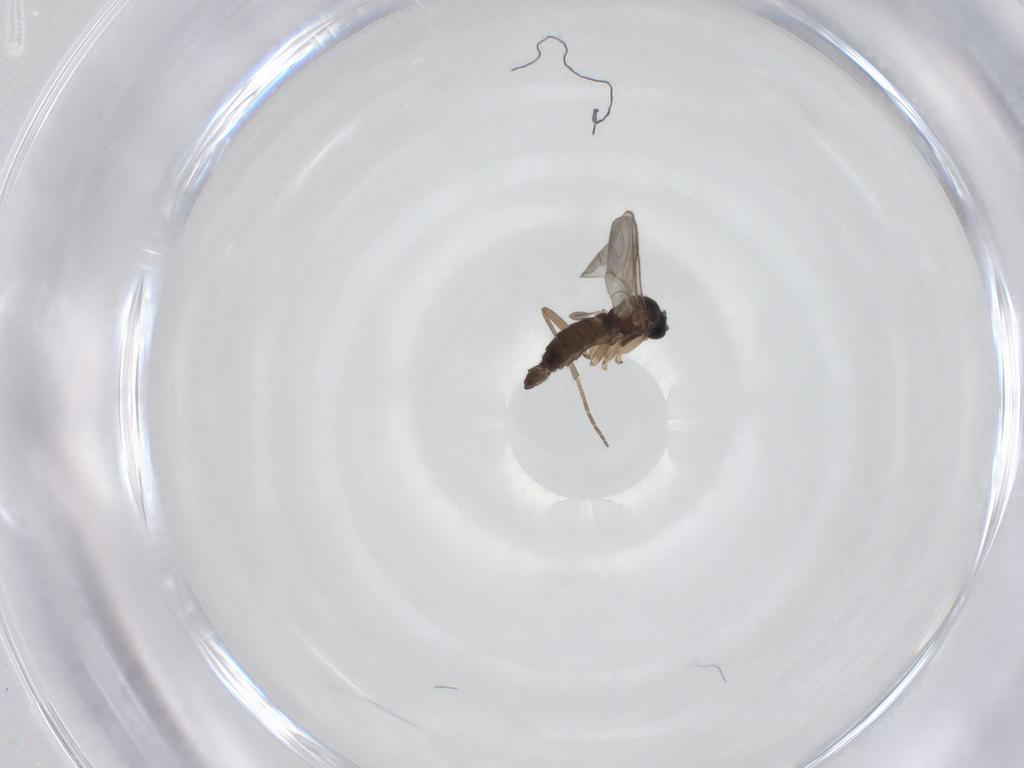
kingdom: Animalia
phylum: Arthropoda
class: Insecta
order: Diptera
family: Sciaridae
